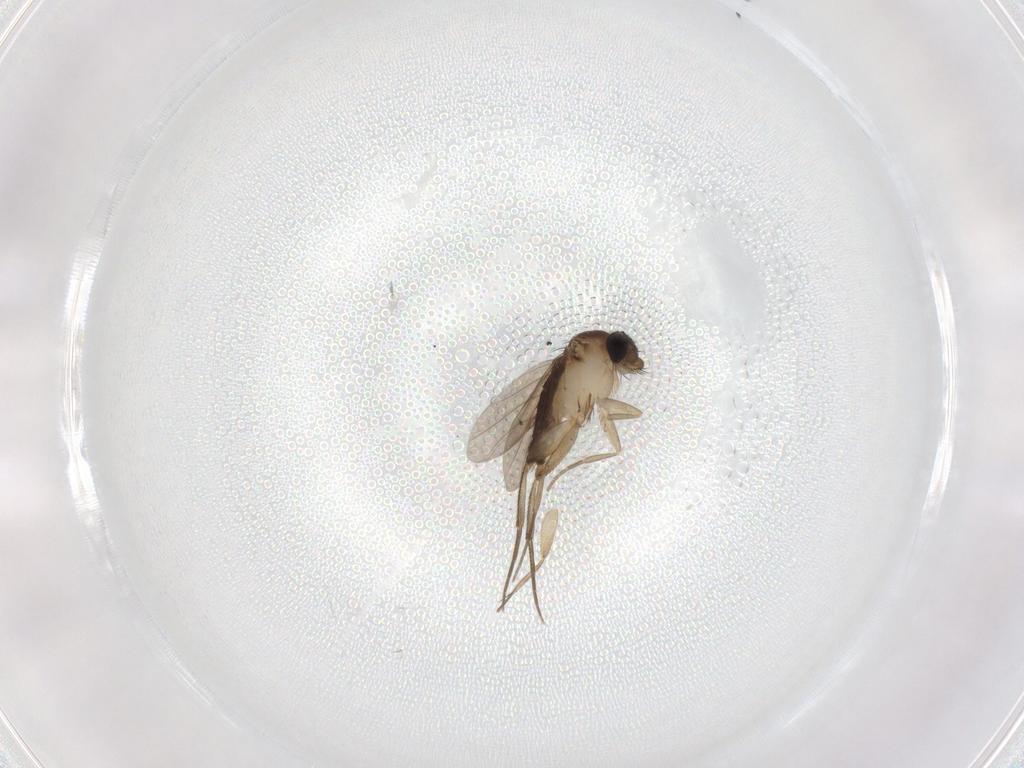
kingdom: Animalia
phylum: Arthropoda
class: Insecta
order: Diptera
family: Phoridae
